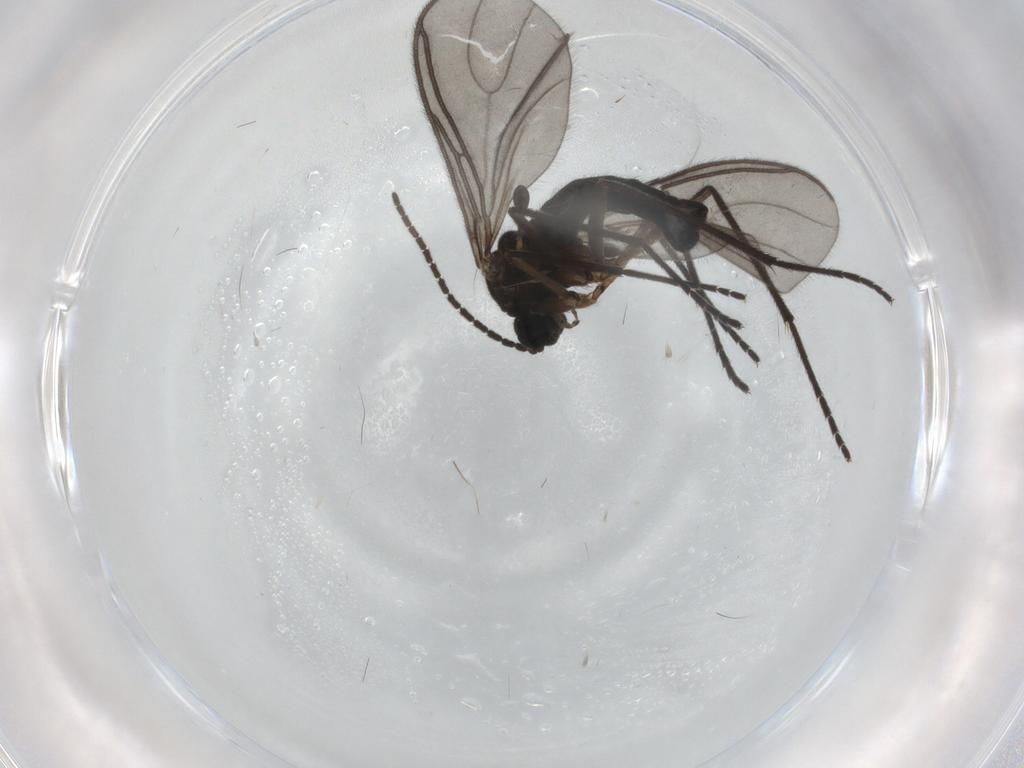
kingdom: Animalia
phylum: Arthropoda
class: Insecta
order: Diptera
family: Sciaridae
